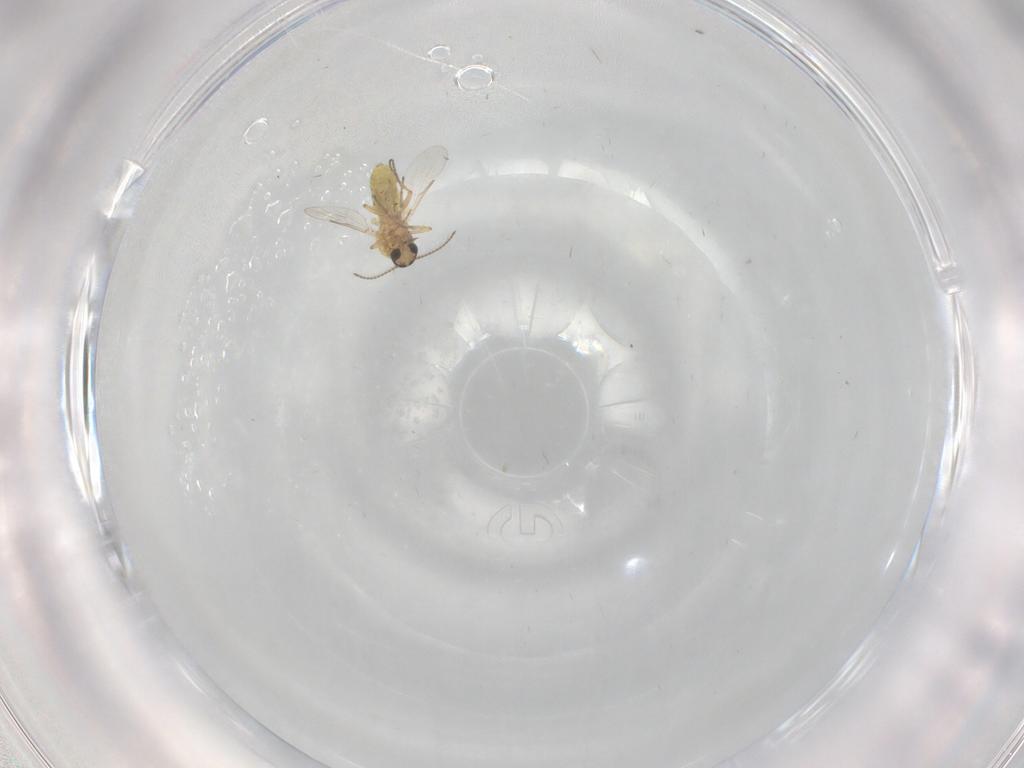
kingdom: Animalia
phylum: Arthropoda
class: Insecta
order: Diptera
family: Ceratopogonidae
